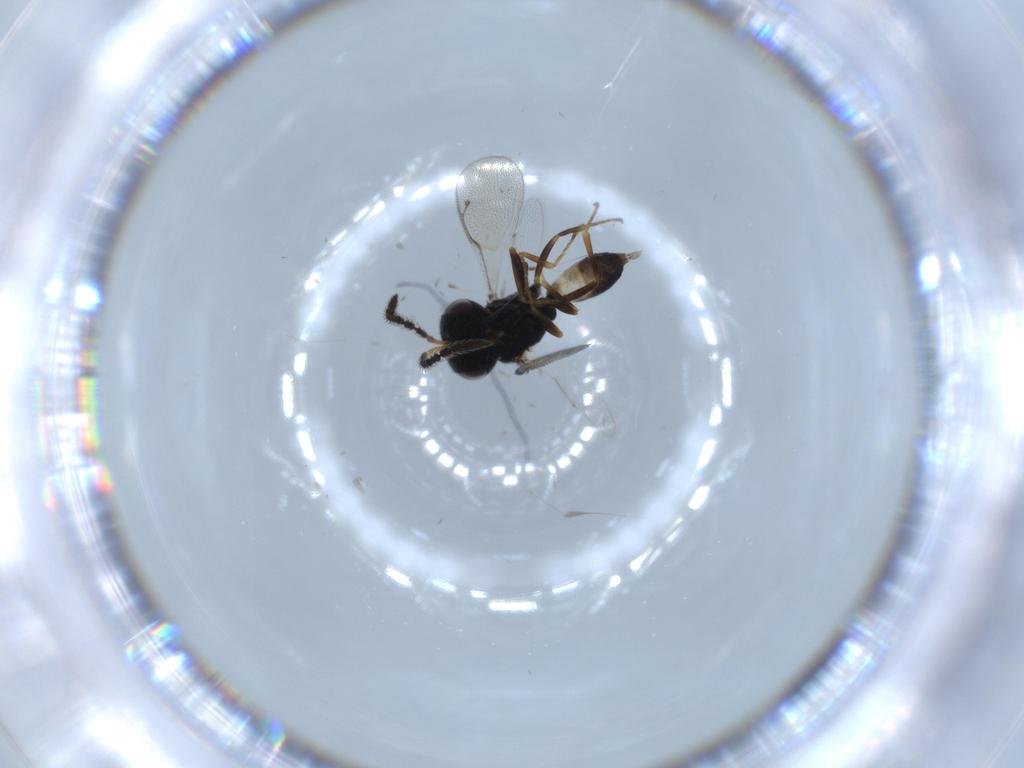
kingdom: Animalia
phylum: Arthropoda
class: Insecta
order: Hymenoptera
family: Pteromalidae
